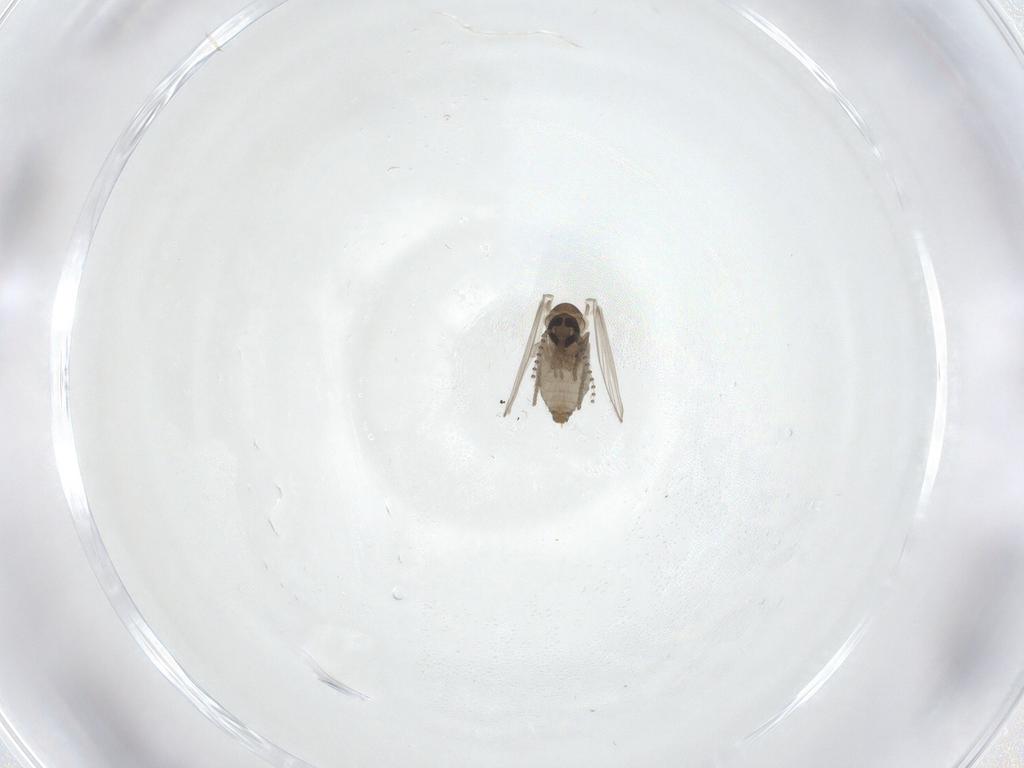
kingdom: Animalia
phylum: Arthropoda
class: Insecta
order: Diptera
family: Psychodidae
